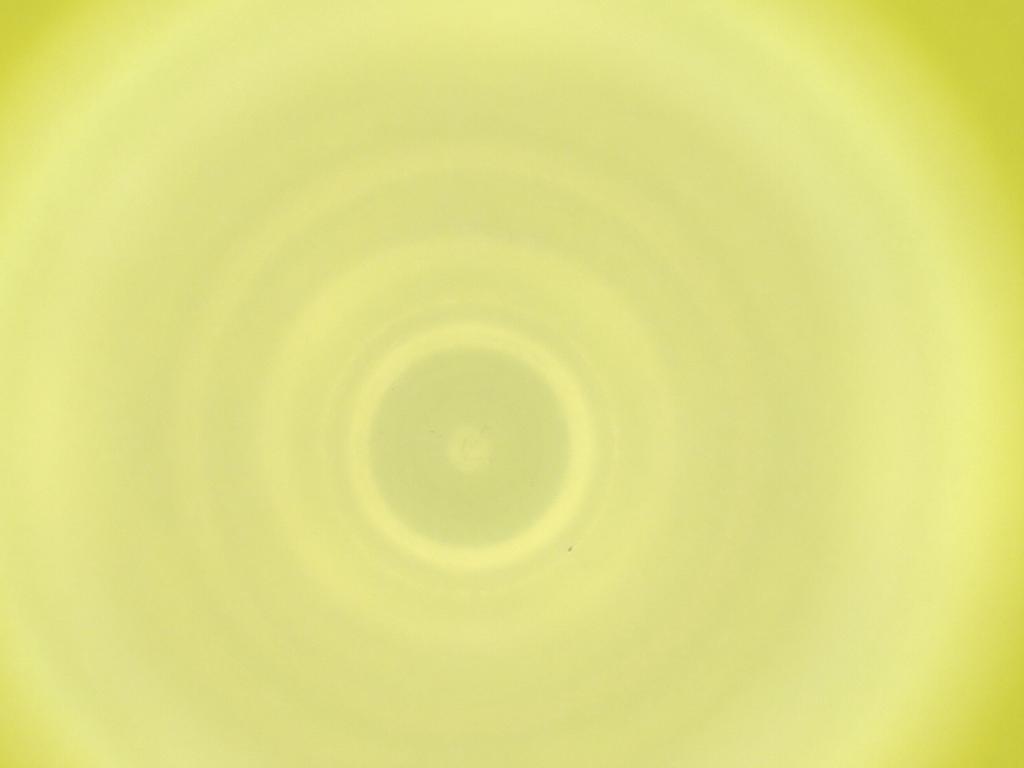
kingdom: Animalia
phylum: Arthropoda
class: Insecta
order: Diptera
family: Cecidomyiidae
